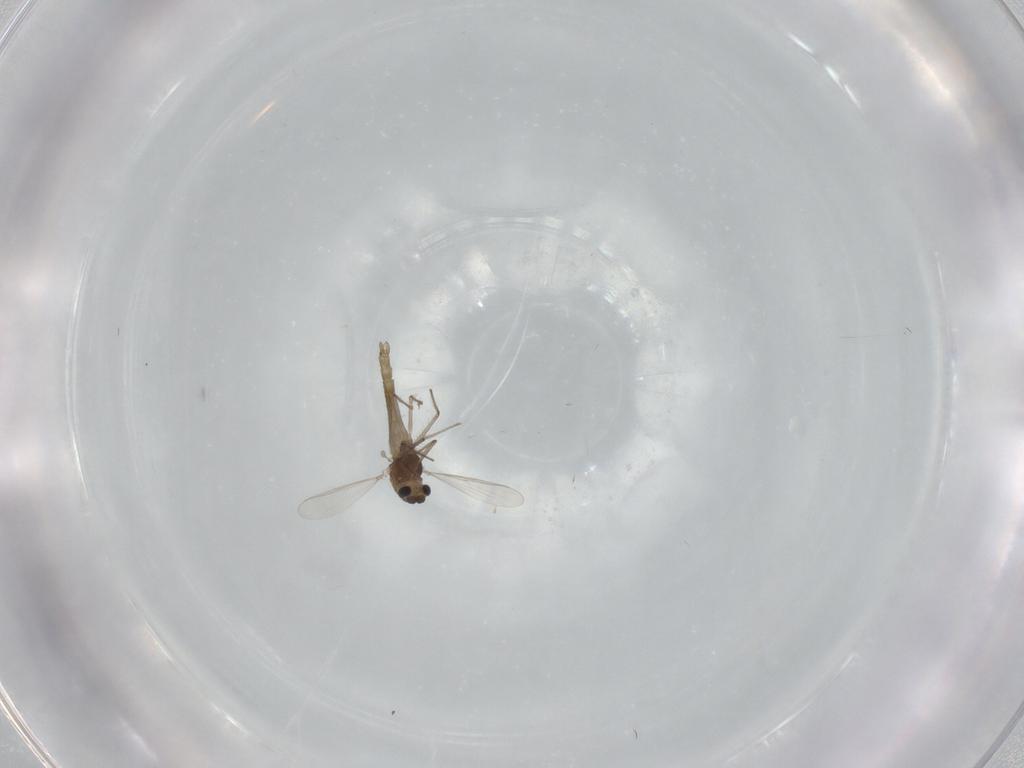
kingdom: Animalia
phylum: Arthropoda
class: Insecta
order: Diptera
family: Chironomidae
